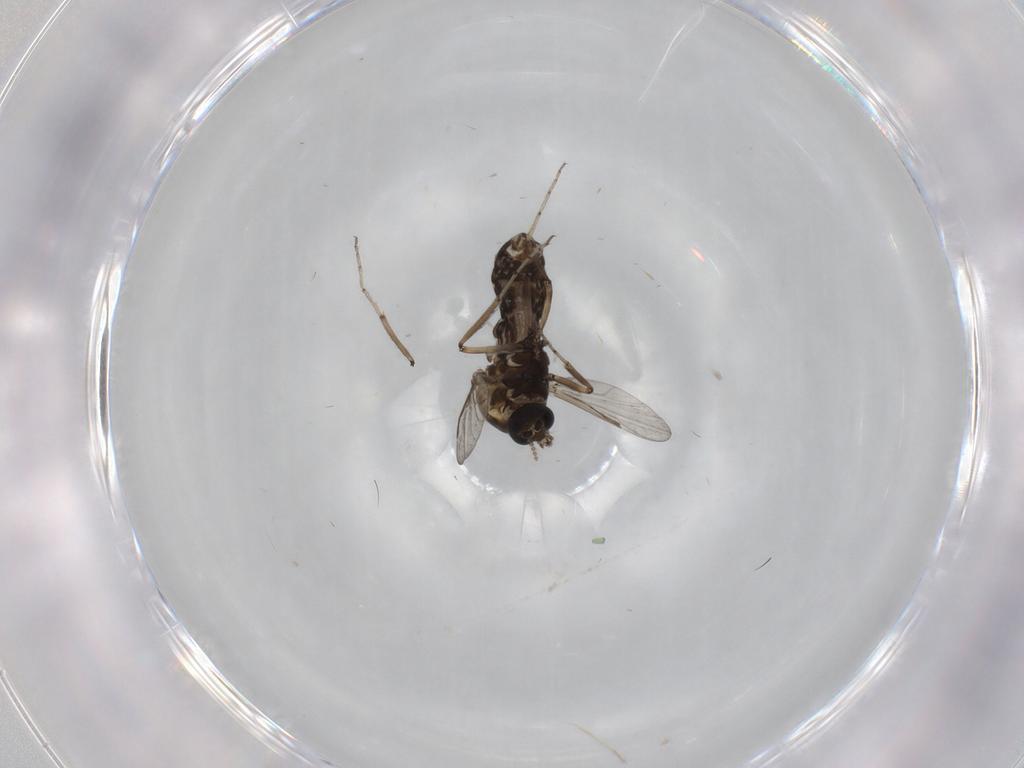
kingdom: Animalia
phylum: Arthropoda
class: Insecta
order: Diptera
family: Ceratopogonidae
